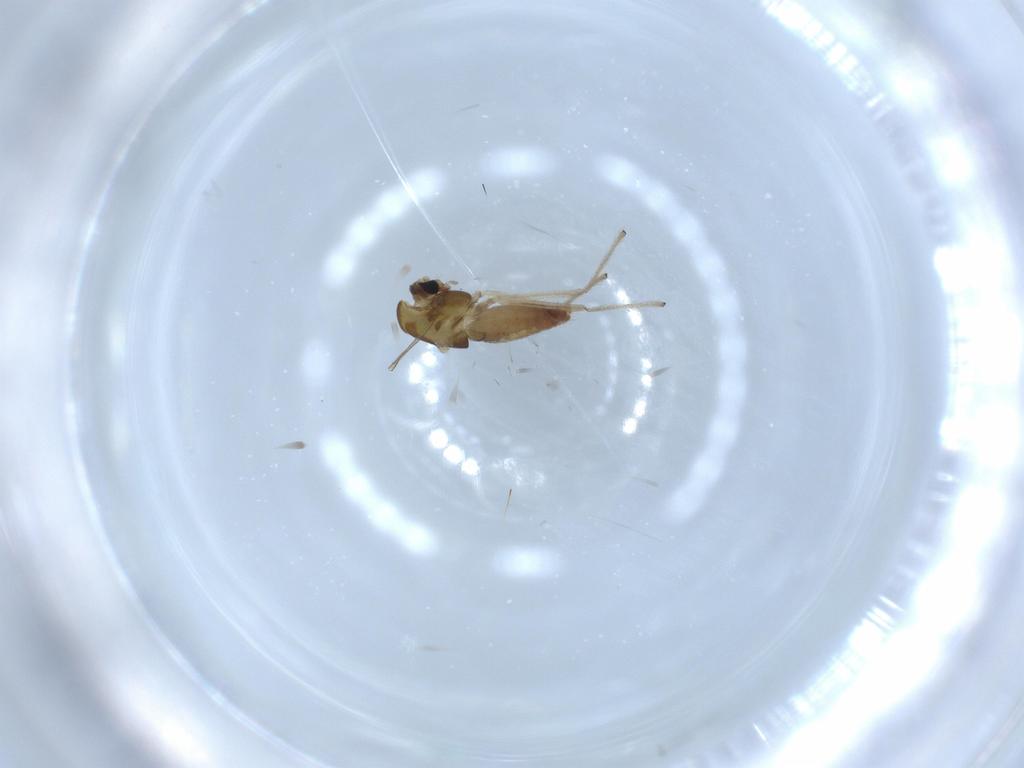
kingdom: Animalia
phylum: Arthropoda
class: Insecta
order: Diptera
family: Chironomidae
